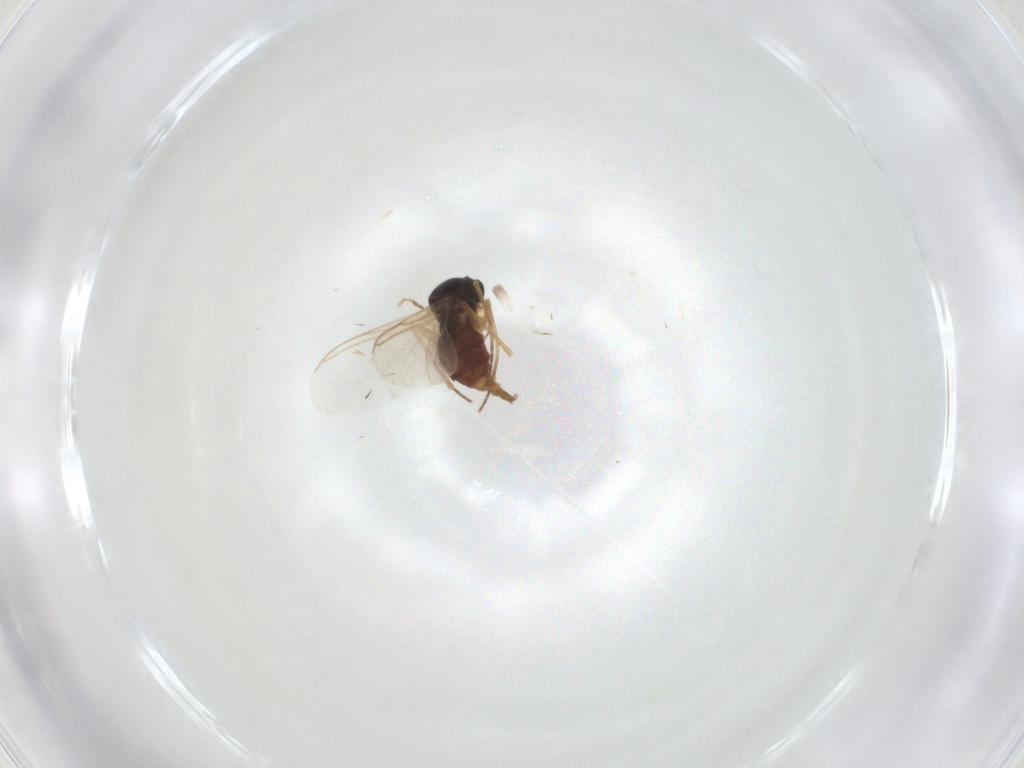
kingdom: Animalia
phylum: Arthropoda
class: Insecta
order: Diptera
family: Sciaridae
